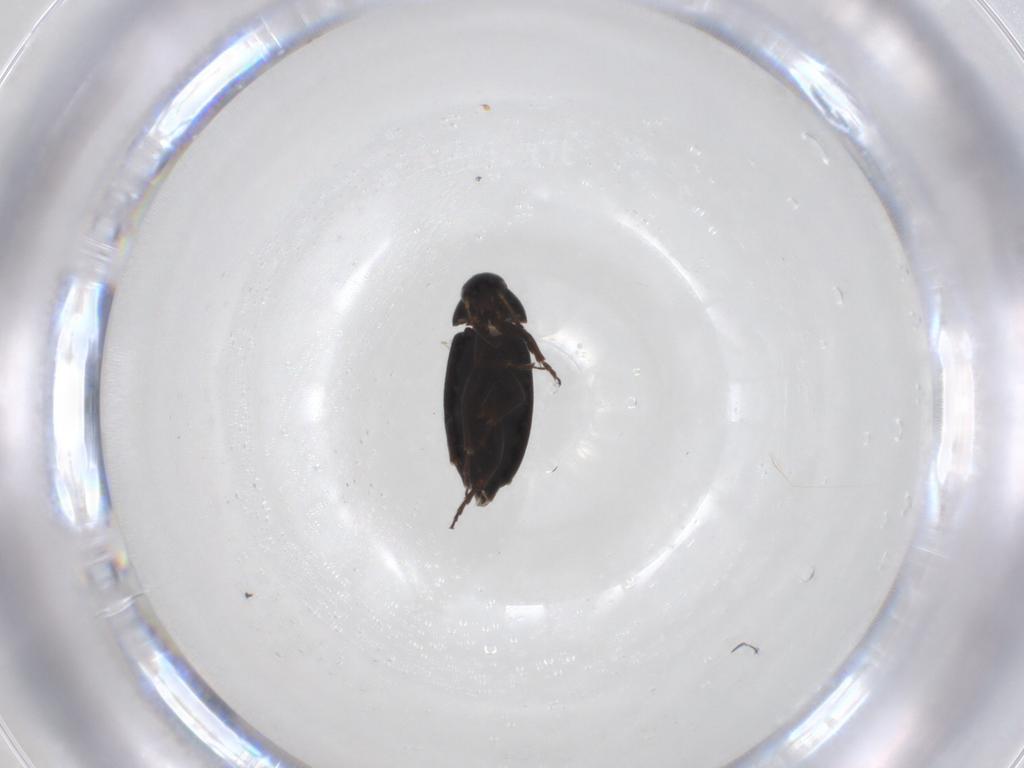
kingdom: Animalia
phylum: Arthropoda
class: Insecta
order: Coleoptera
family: Scraptiidae
